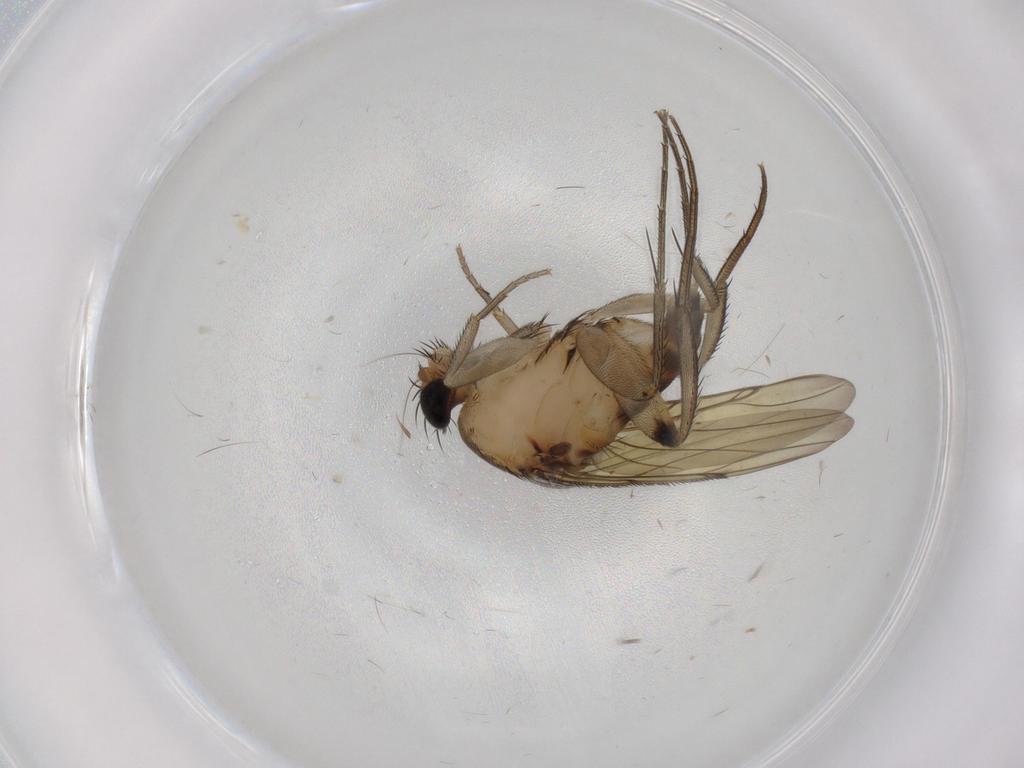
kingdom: Animalia
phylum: Arthropoda
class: Insecta
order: Diptera
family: Phoridae
